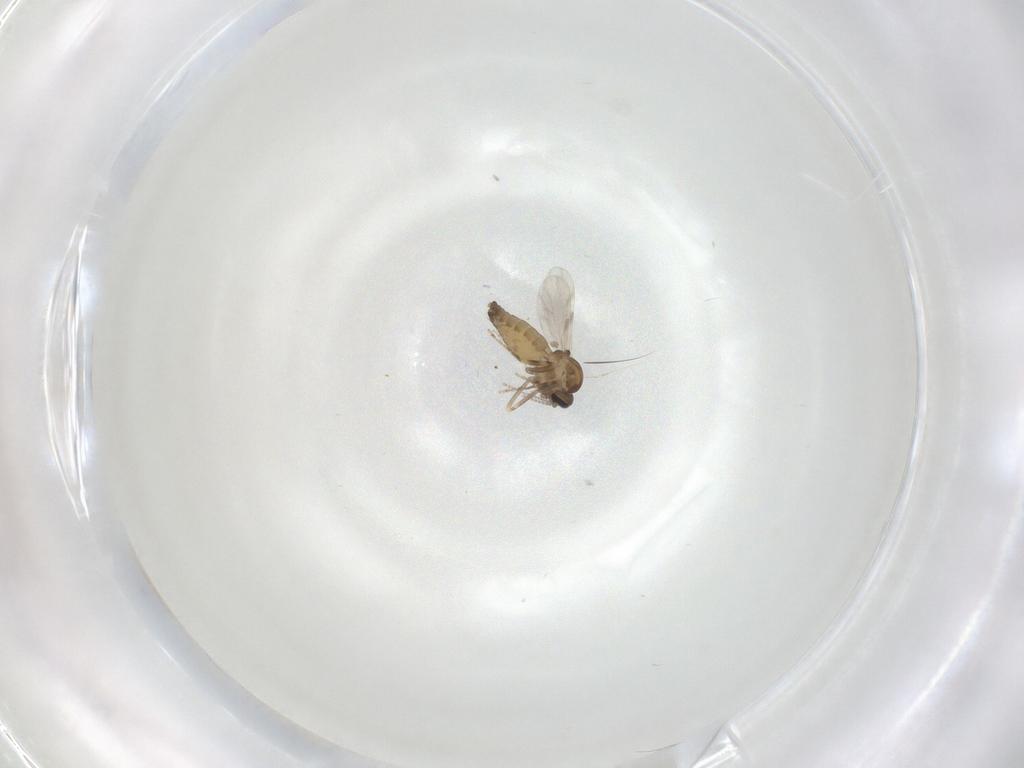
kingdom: Animalia
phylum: Arthropoda
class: Insecta
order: Diptera
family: Ceratopogonidae
